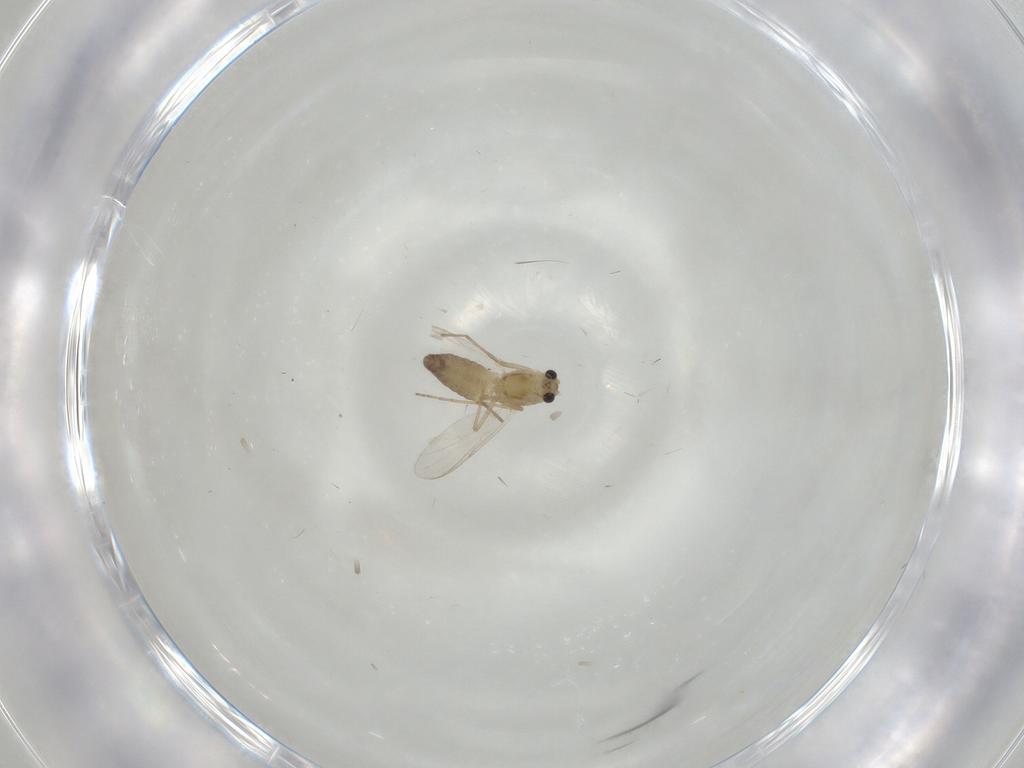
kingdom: Animalia
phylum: Arthropoda
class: Insecta
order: Diptera
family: Chironomidae
